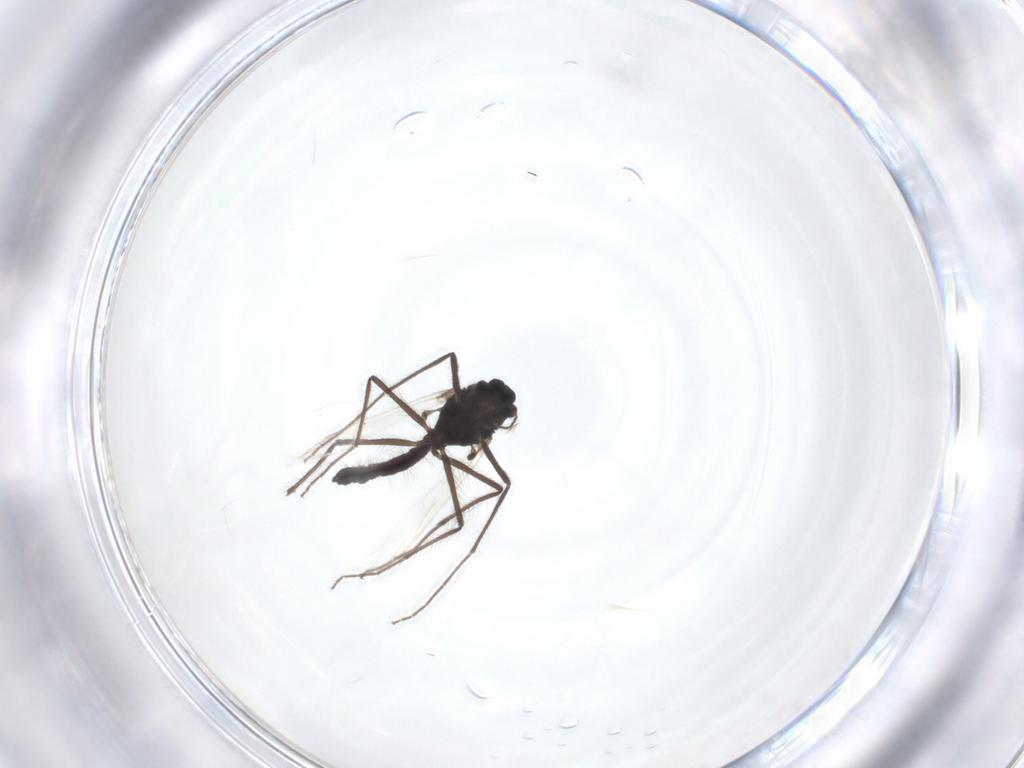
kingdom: Animalia
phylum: Arthropoda
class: Insecta
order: Diptera
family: Chironomidae
